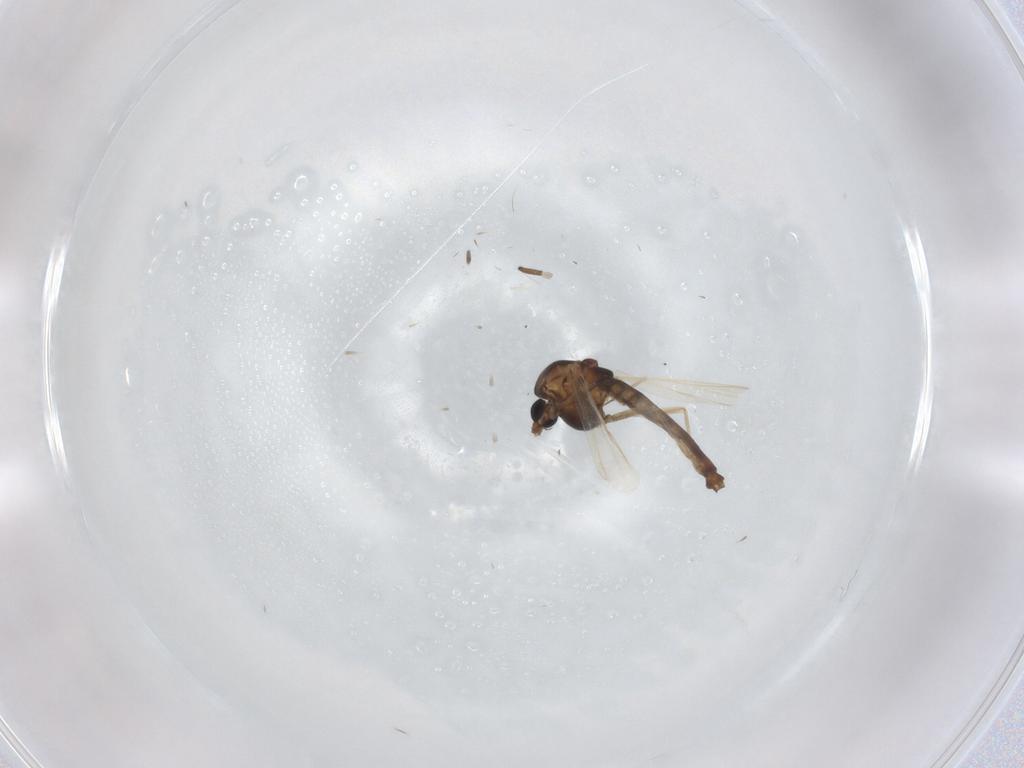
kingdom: Animalia
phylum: Arthropoda
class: Insecta
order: Diptera
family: Chironomidae
